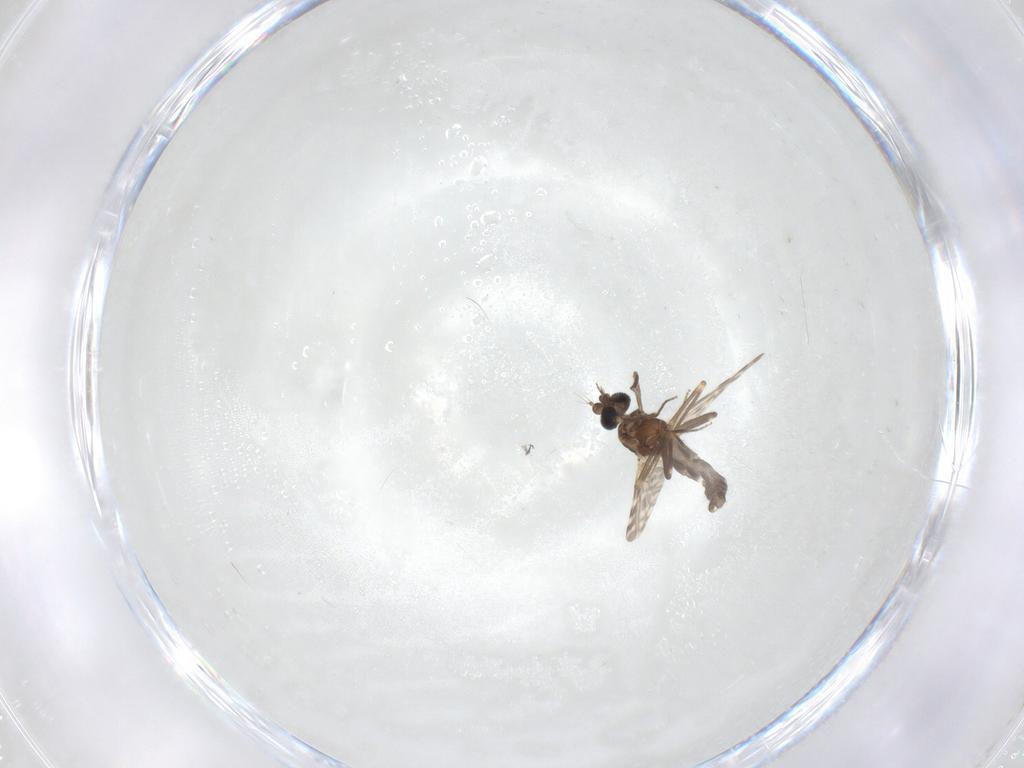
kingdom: Animalia
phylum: Arthropoda
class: Insecta
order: Diptera
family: Ceratopogonidae
